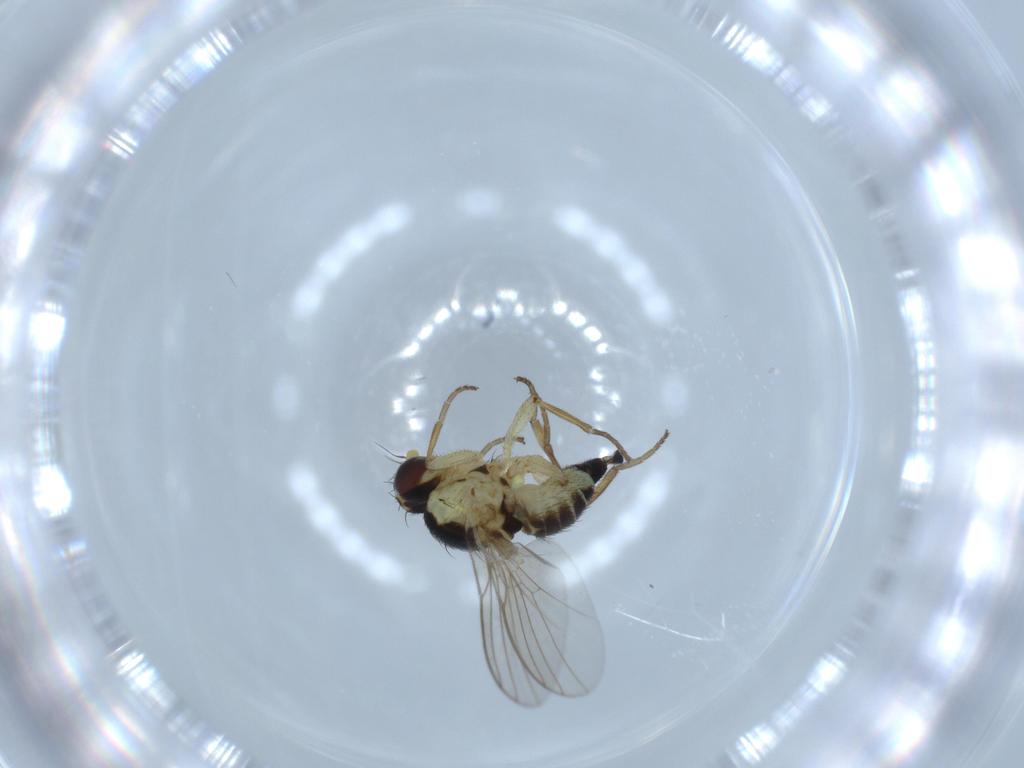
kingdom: Animalia
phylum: Arthropoda
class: Insecta
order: Diptera
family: Agromyzidae
